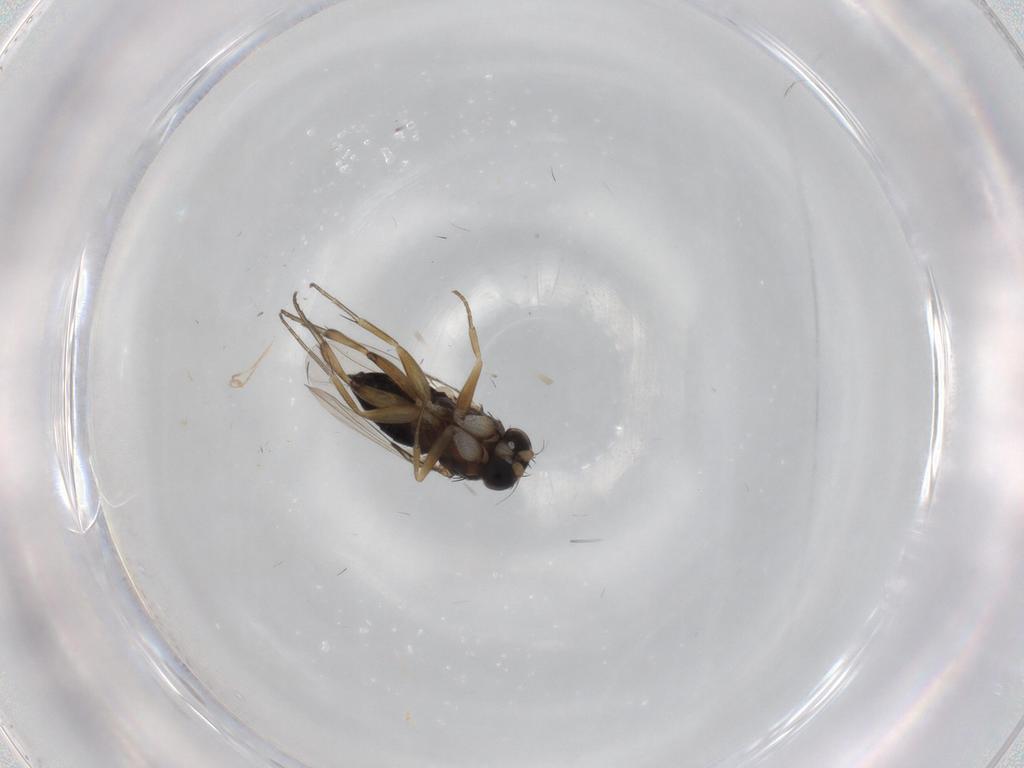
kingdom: Animalia
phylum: Arthropoda
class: Insecta
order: Diptera
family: Phoridae
